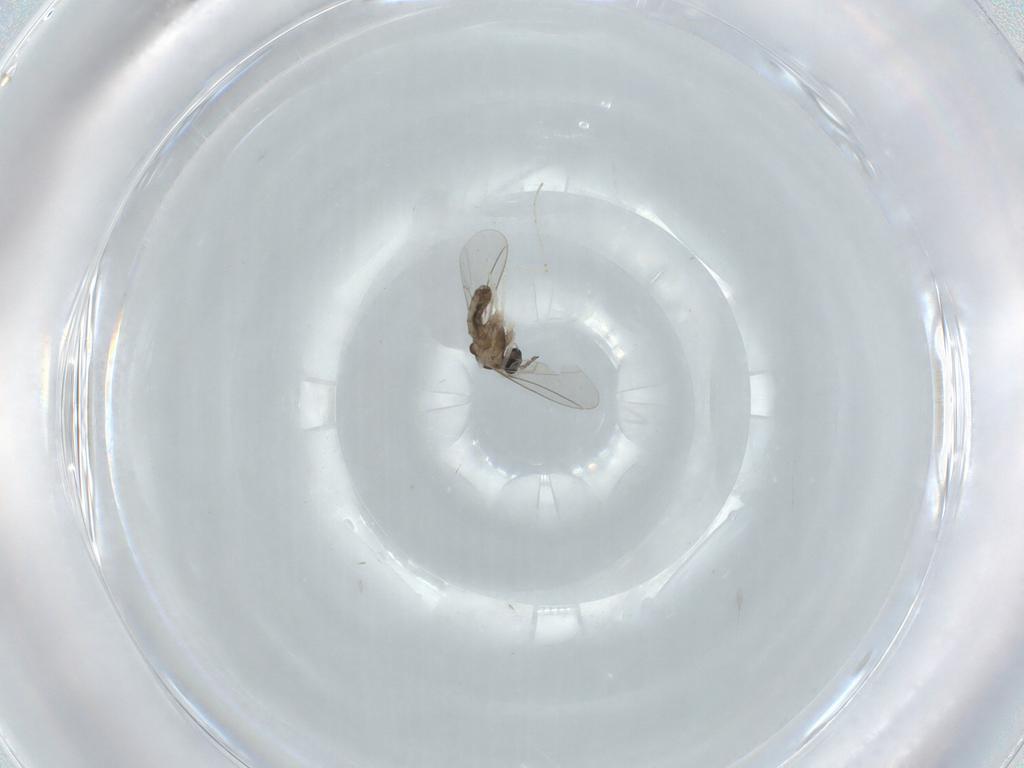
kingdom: Animalia
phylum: Arthropoda
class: Insecta
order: Diptera
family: Cecidomyiidae
